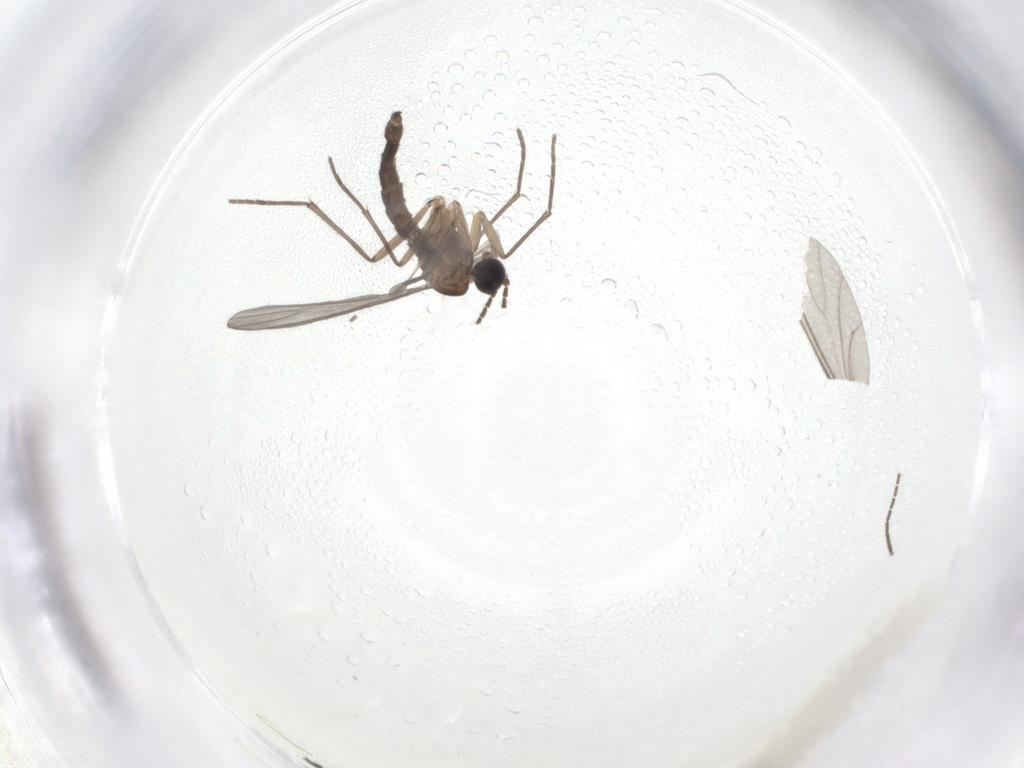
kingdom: Animalia
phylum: Arthropoda
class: Insecta
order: Diptera
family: Sciaridae
